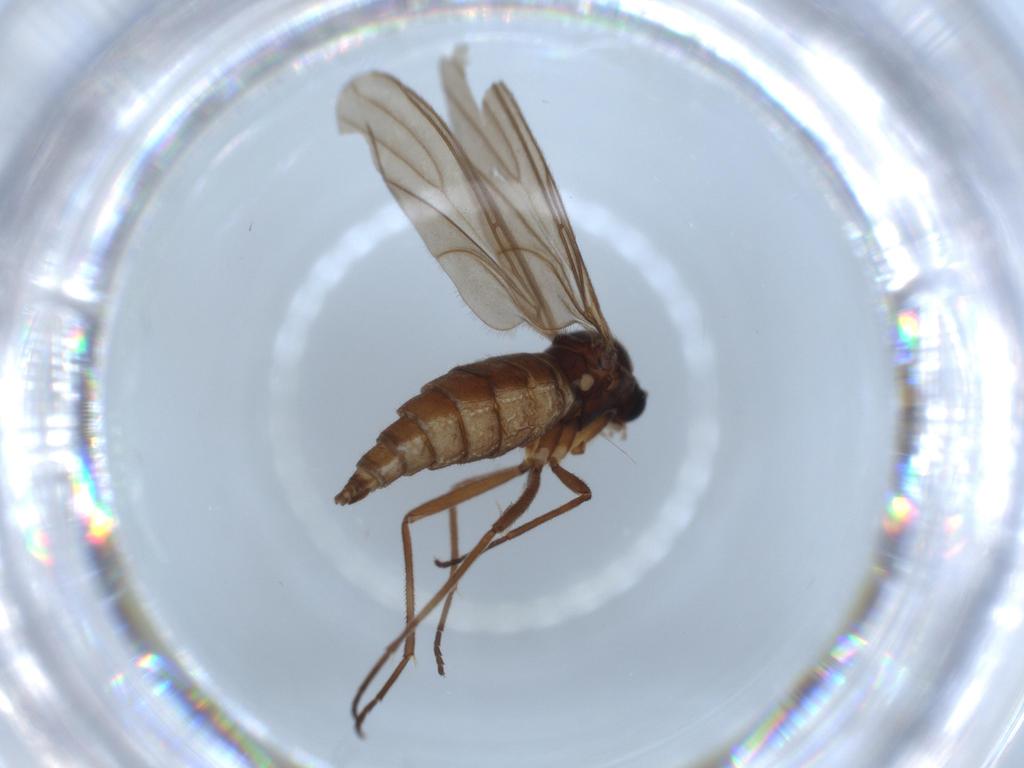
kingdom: Animalia
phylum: Arthropoda
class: Insecta
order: Diptera
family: Sciaridae
